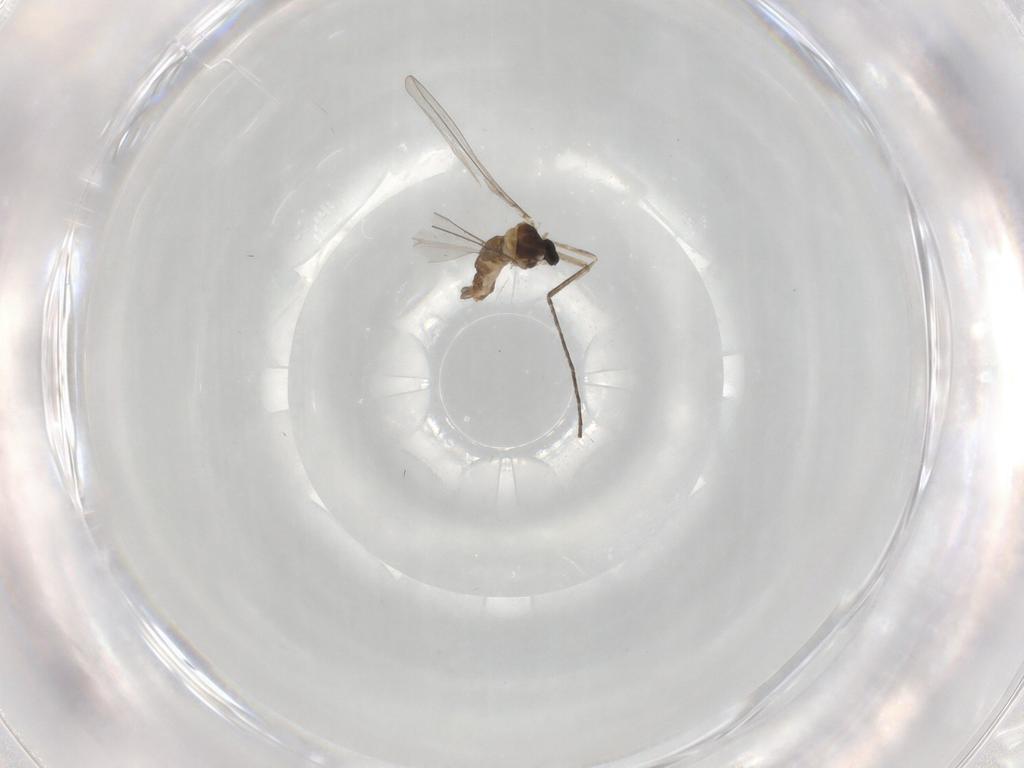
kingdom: Animalia
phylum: Arthropoda
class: Insecta
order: Diptera
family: Cecidomyiidae
